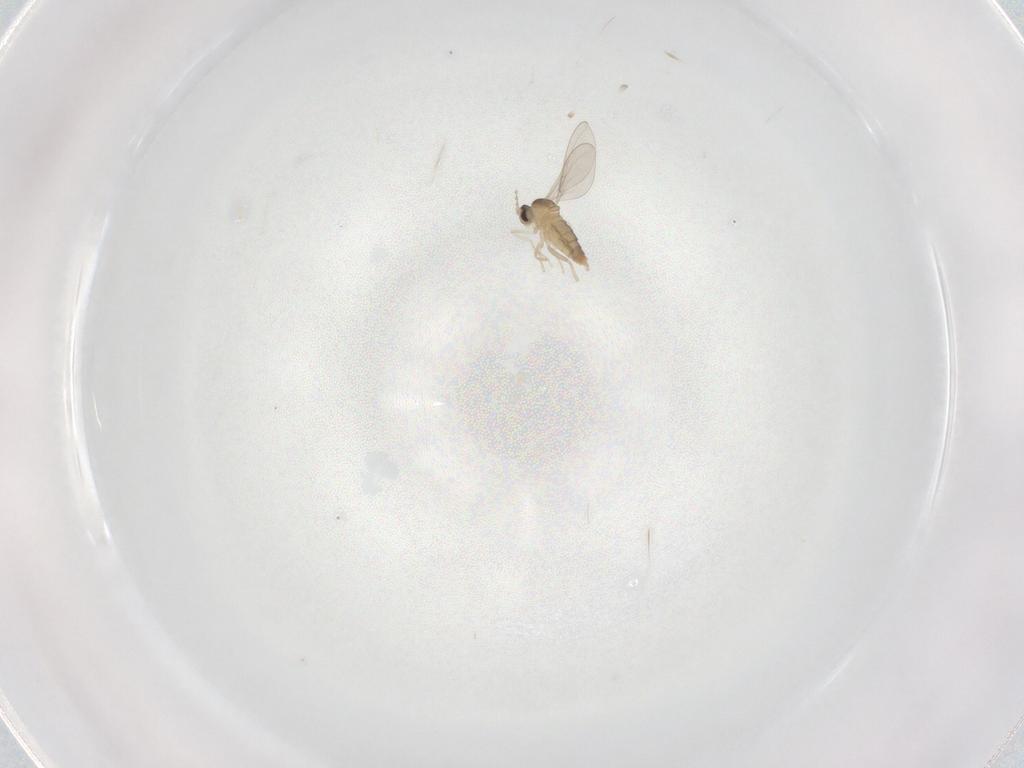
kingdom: Animalia
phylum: Arthropoda
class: Insecta
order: Diptera
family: Cecidomyiidae
